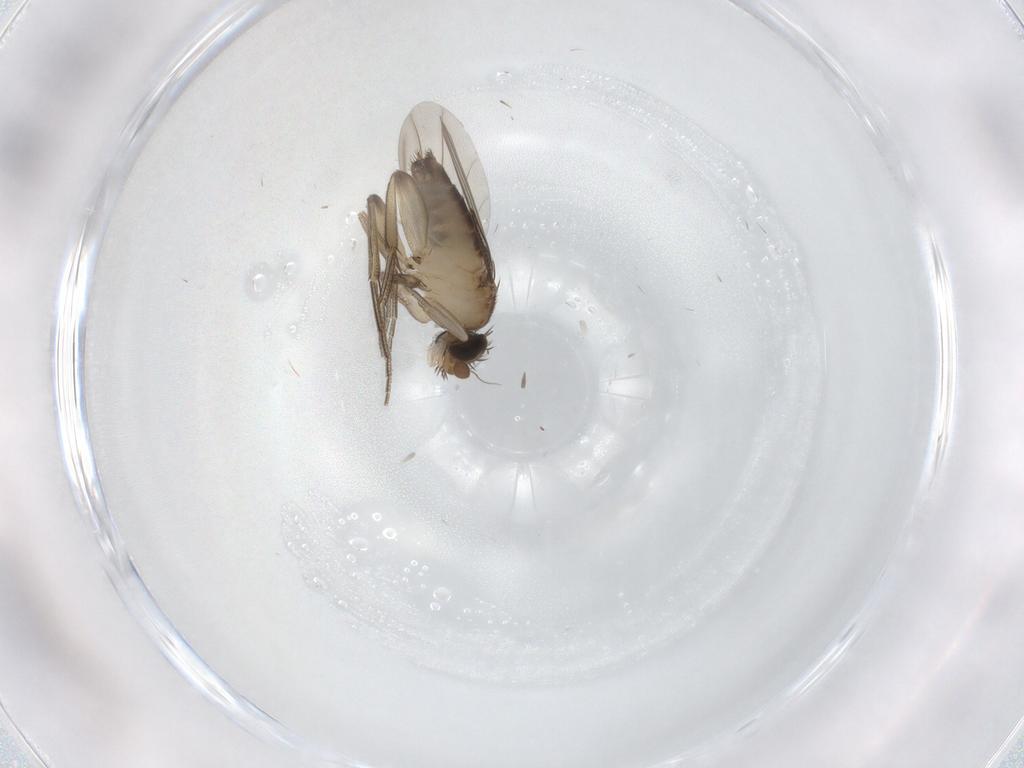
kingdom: Animalia
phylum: Arthropoda
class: Insecta
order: Diptera
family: Phoridae
